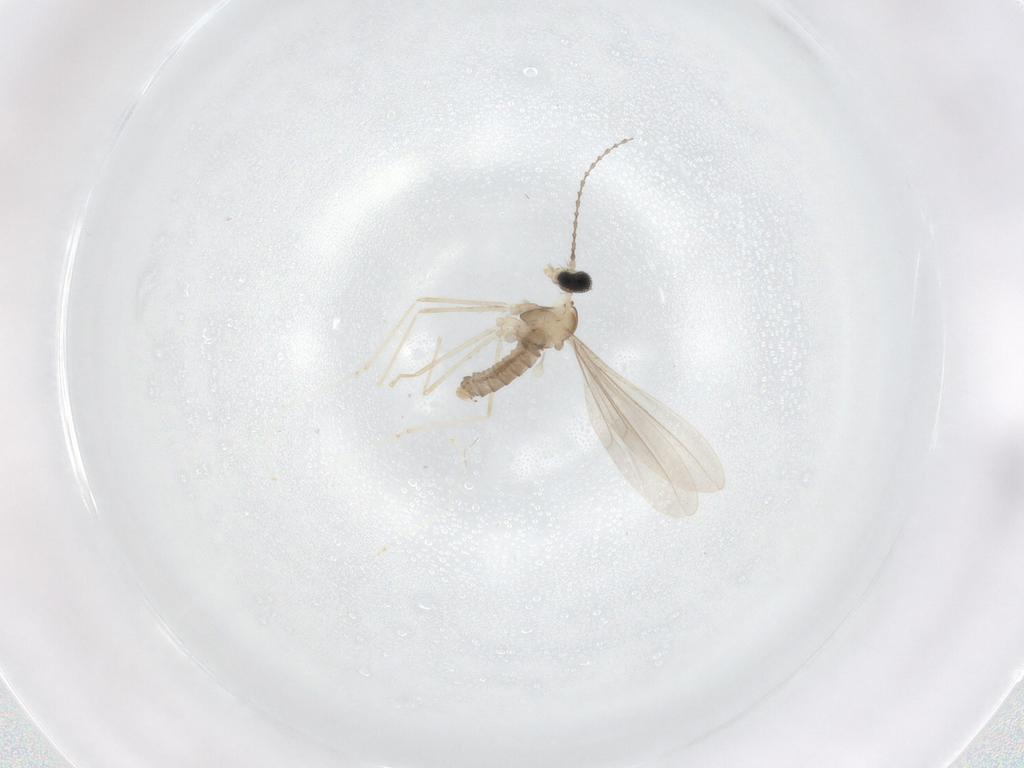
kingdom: Animalia
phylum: Arthropoda
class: Insecta
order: Diptera
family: Cecidomyiidae
